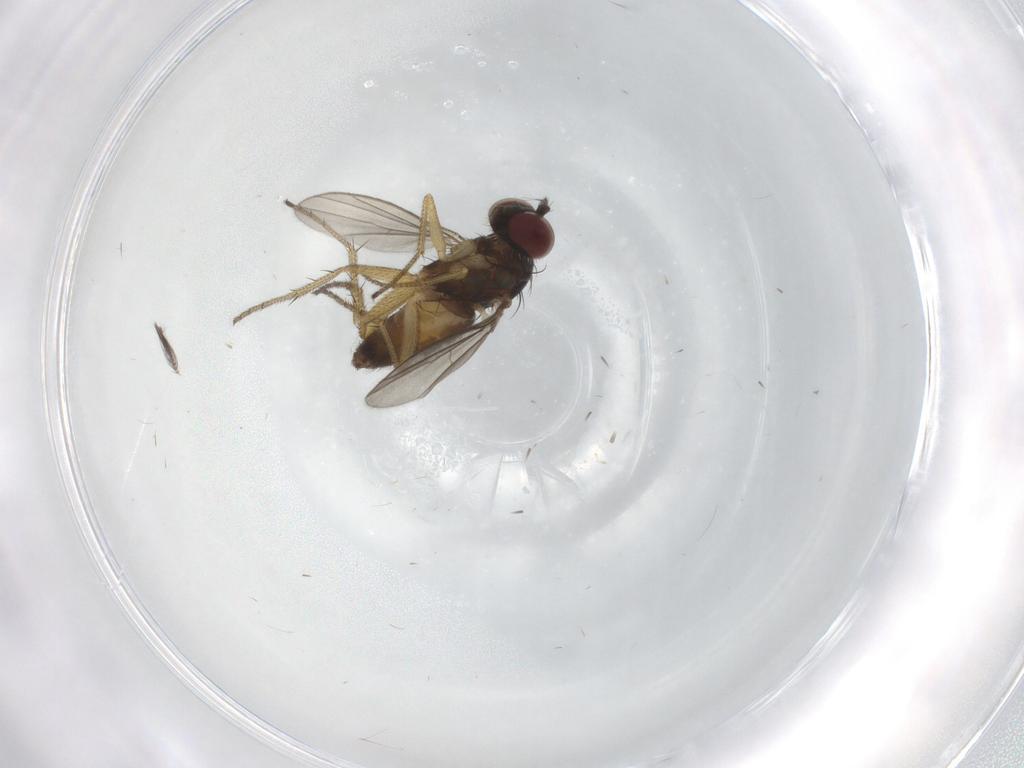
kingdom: Animalia
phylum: Arthropoda
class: Insecta
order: Diptera
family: Chironomidae
